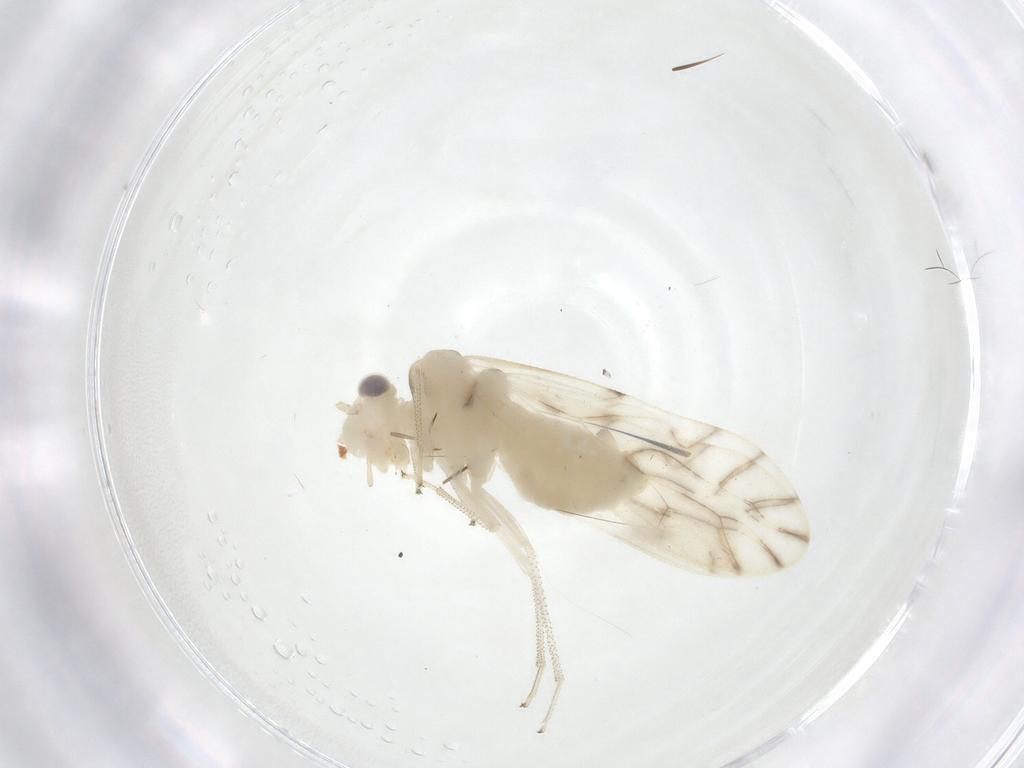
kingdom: Animalia
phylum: Arthropoda
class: Insecta
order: Psocodea
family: Caeciliusidae
